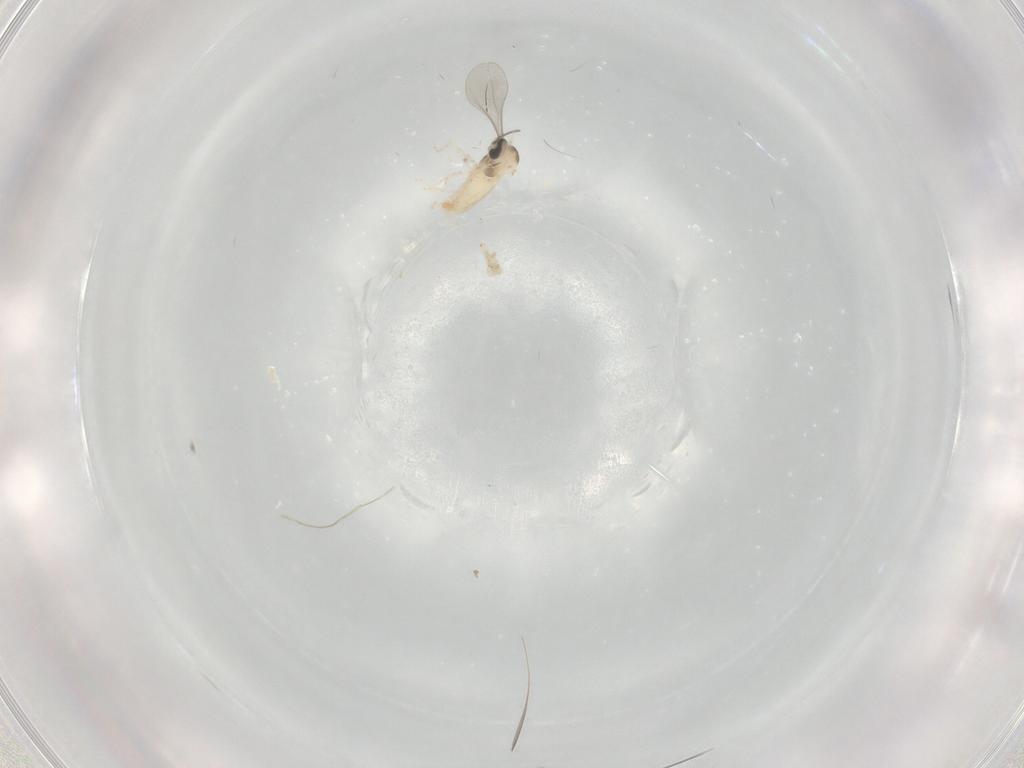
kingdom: Animalia
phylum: Arthropoda
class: Insecta
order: Diptera
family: Cecidomyiidae
